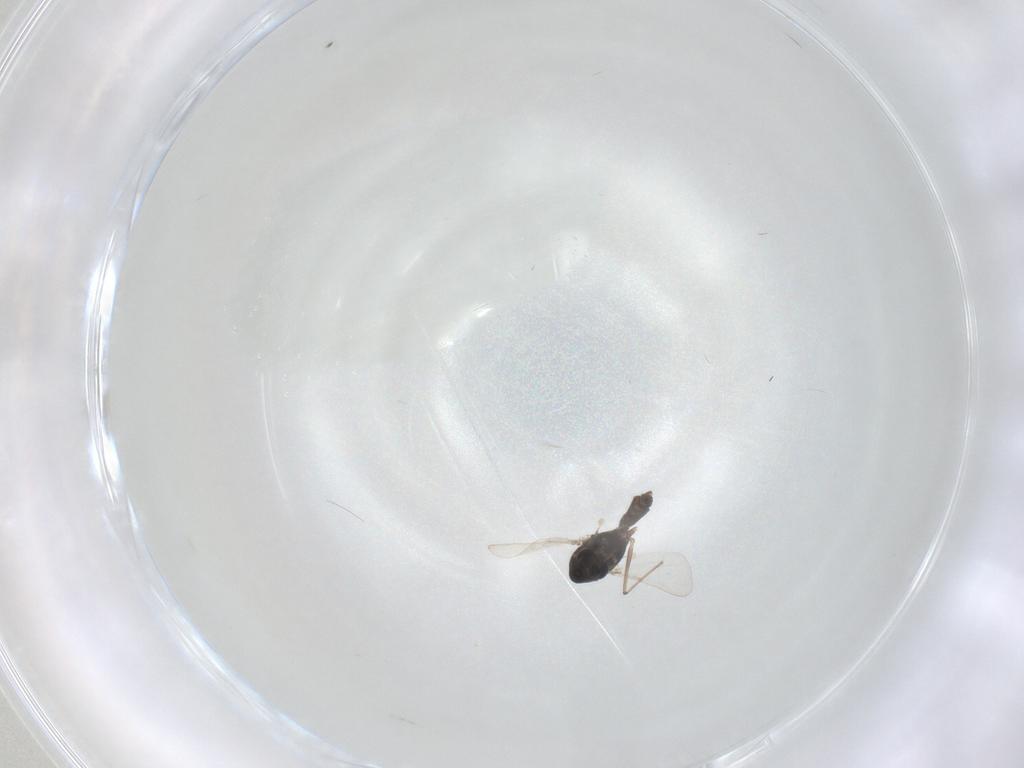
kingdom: Animalia
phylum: Arthropoda
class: Insecta
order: Diptera
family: Chironomidae
